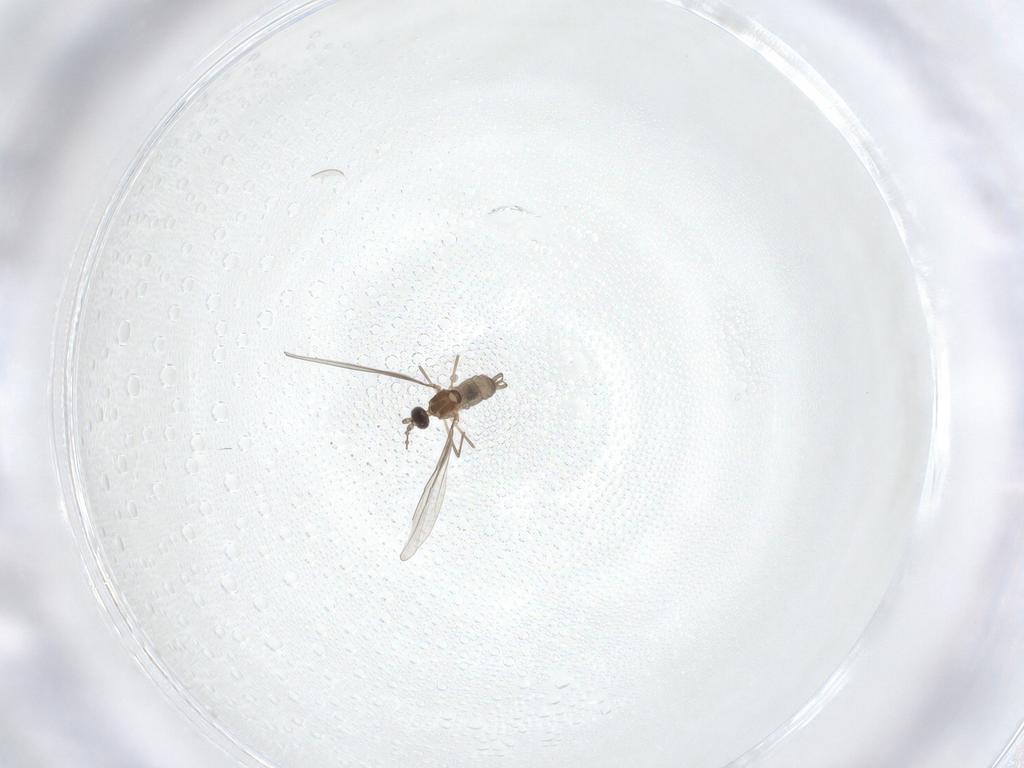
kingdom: Animalia
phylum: Arthropoda
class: Insecta
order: Diptera
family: Cecidomyiidae
